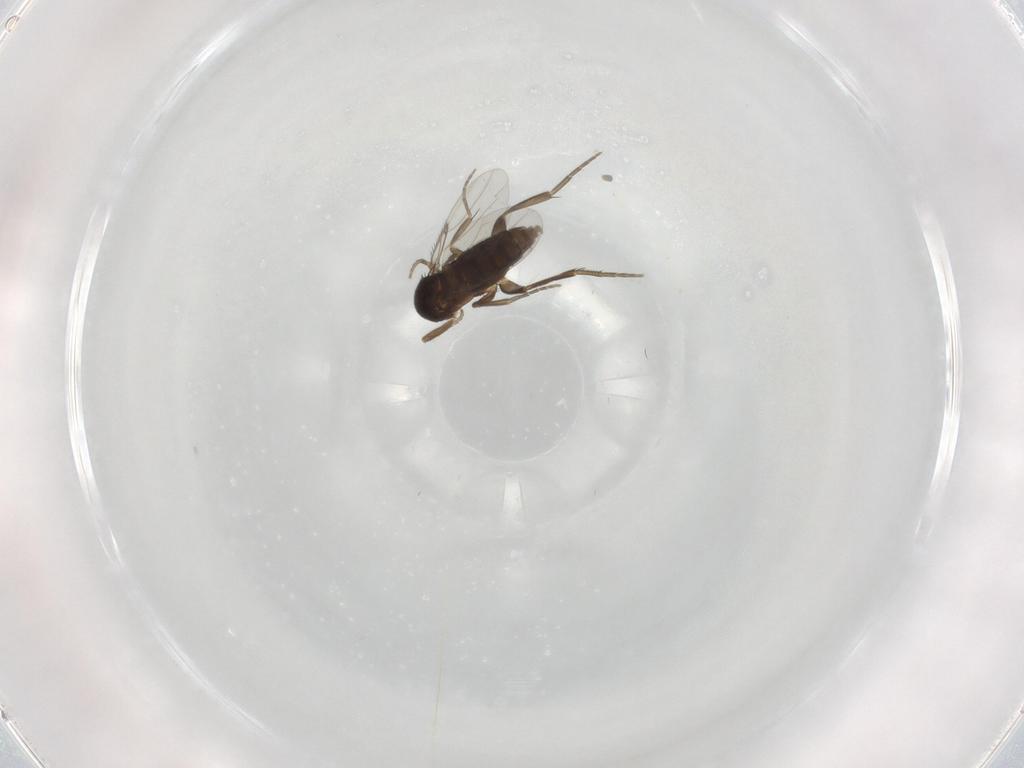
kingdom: Animalia
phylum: Arthropoda
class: Insecta
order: Diptera
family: Phoridae
